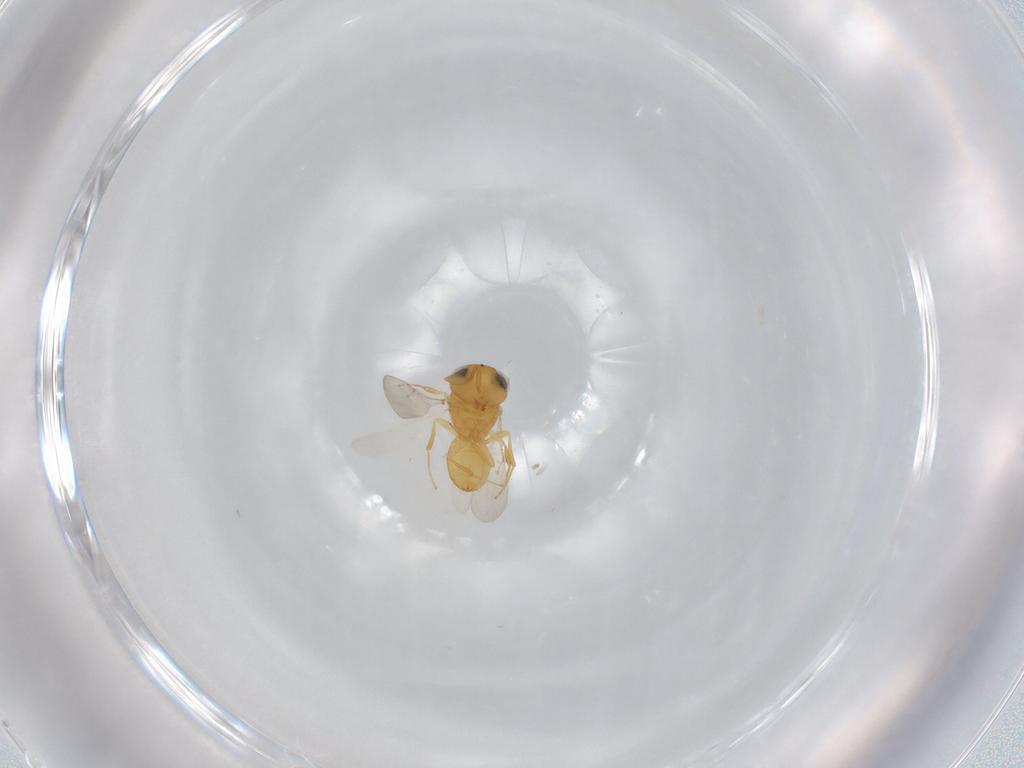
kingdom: Animalia
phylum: Arthropoda
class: Insecta
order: Hymenoptera
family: Scelionidae
